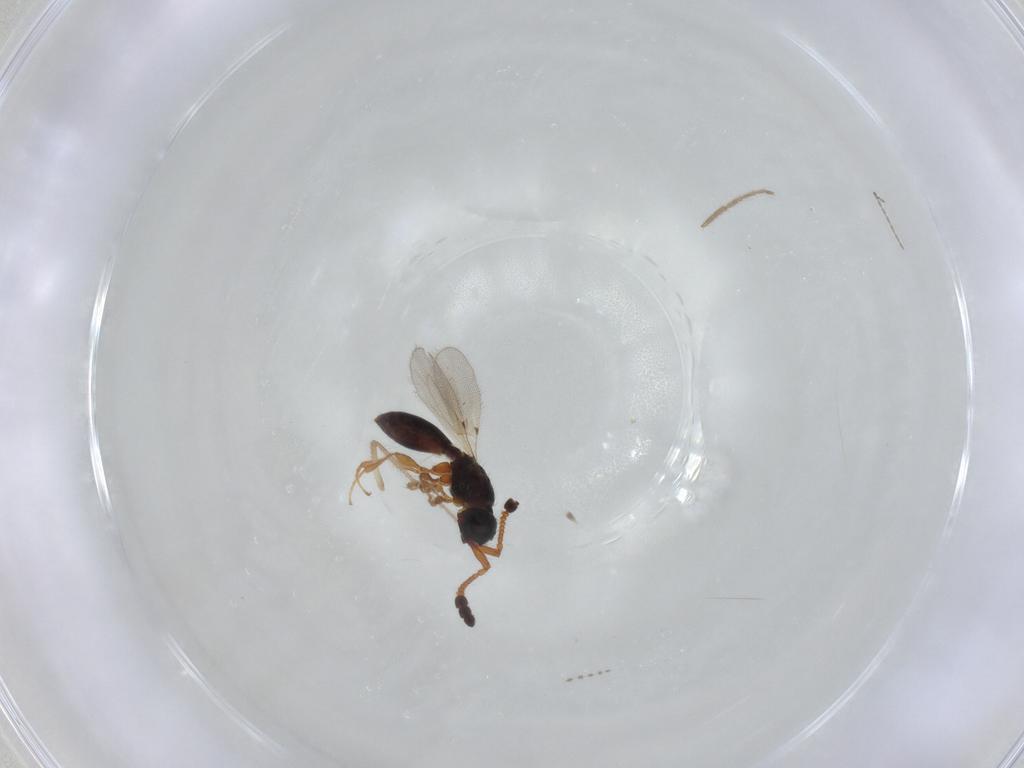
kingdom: Animalia
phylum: Arthropoda
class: Insecta
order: Hymenoptera
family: Diapriidae
